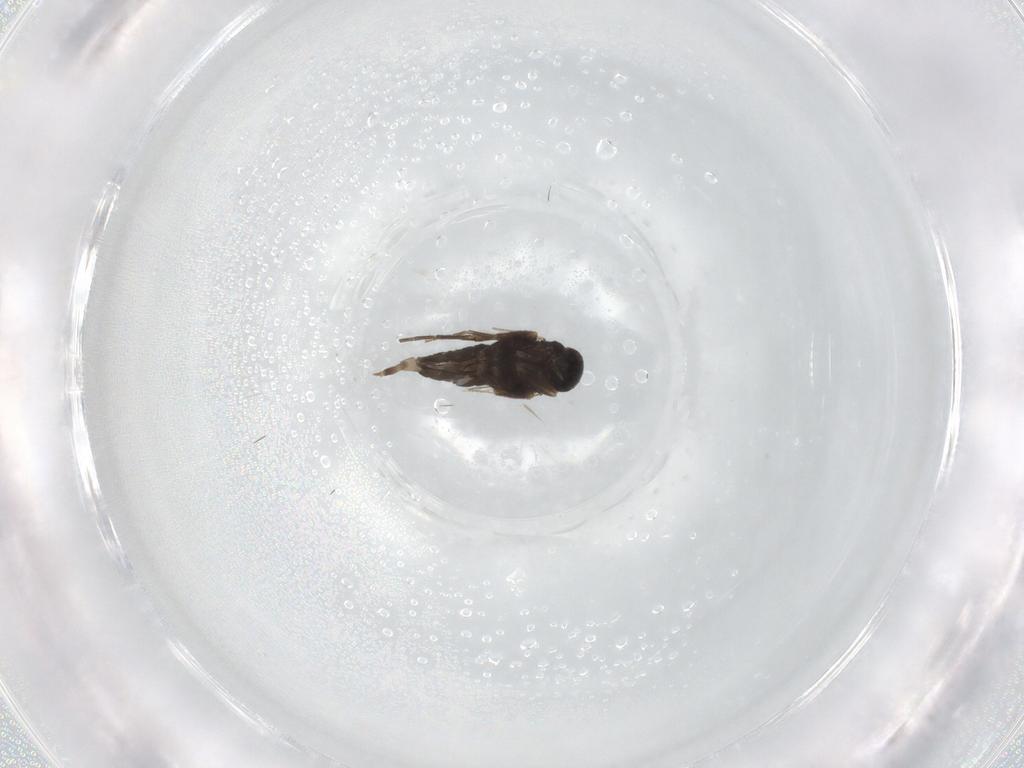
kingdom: Animalia
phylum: Arthropoda
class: Insecta
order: Diptera
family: Phoridae
